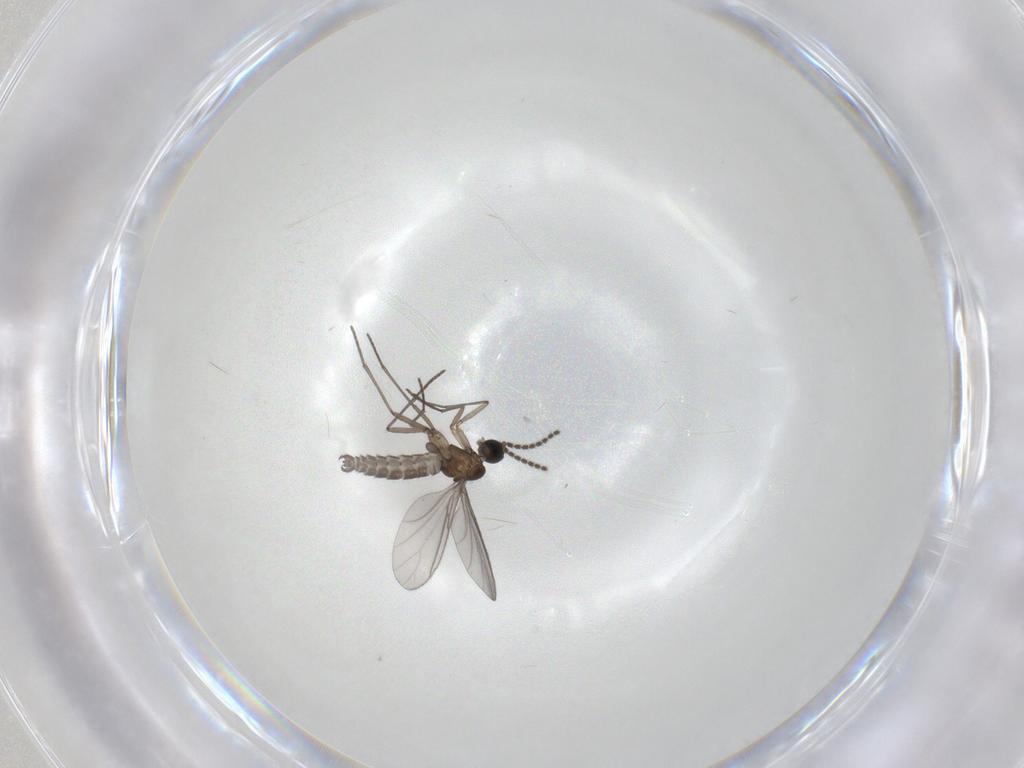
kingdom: Animalia
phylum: Arthropoda
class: Insecta
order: Diptera
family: Sciaridae
